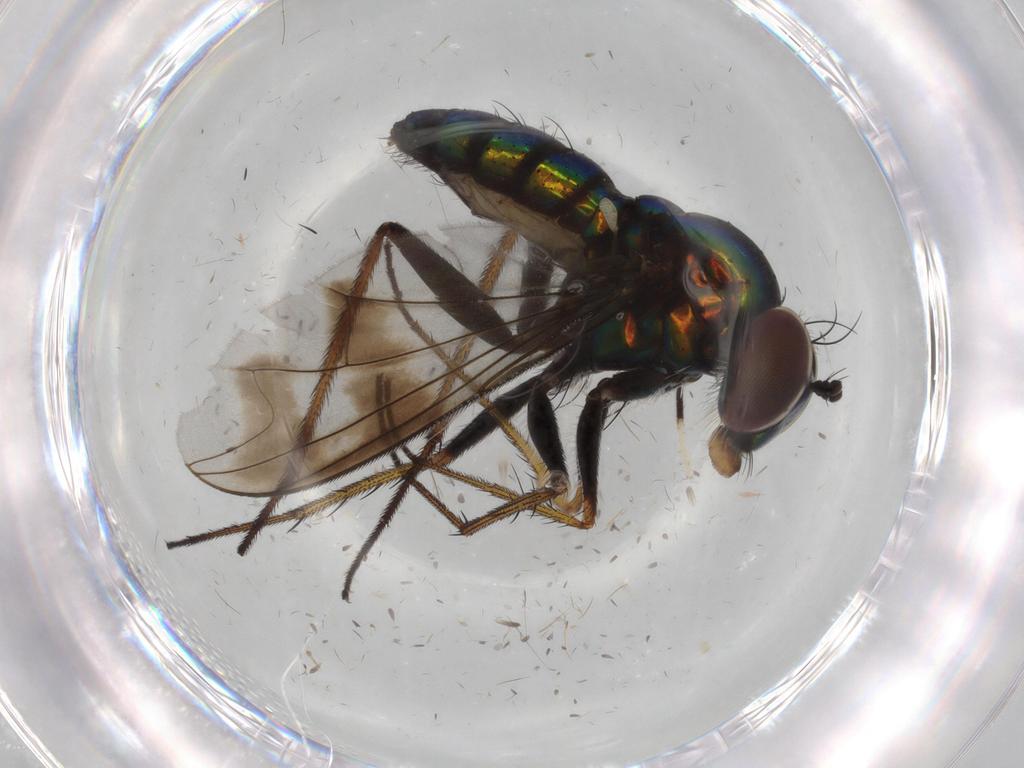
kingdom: Animalia
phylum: Arthropoda
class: Insecta
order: Diptera
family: Dolichopodidae
